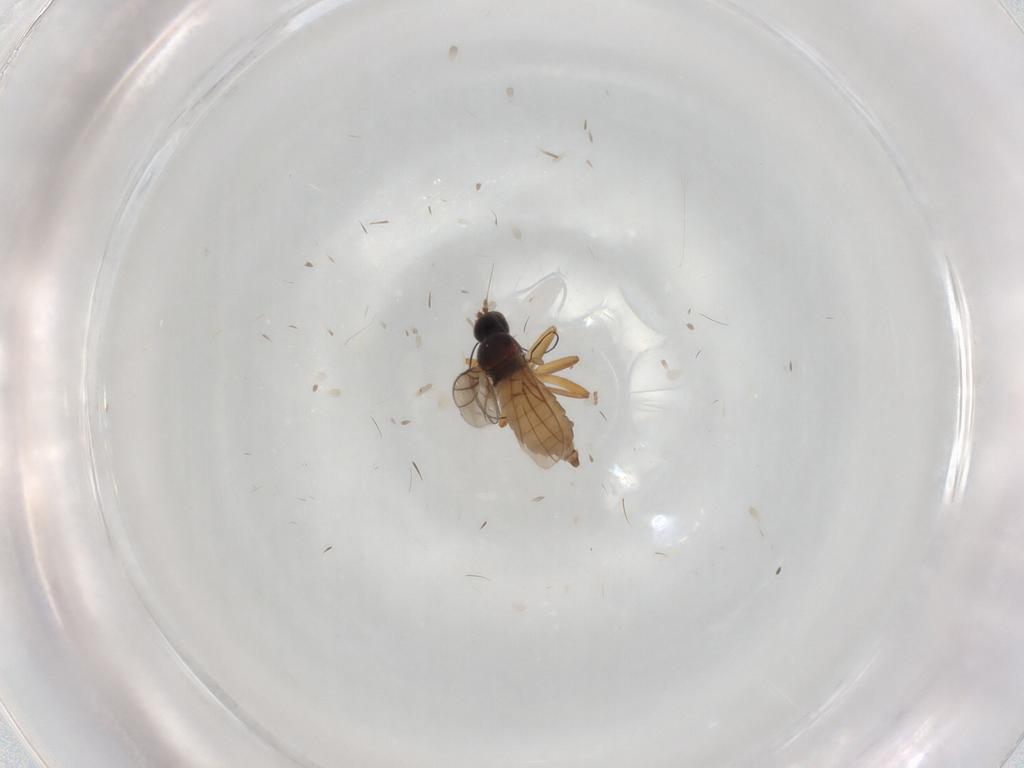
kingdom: Animalia
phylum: Arthropoda
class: Insecta
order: Diptera
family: Hybotidae
